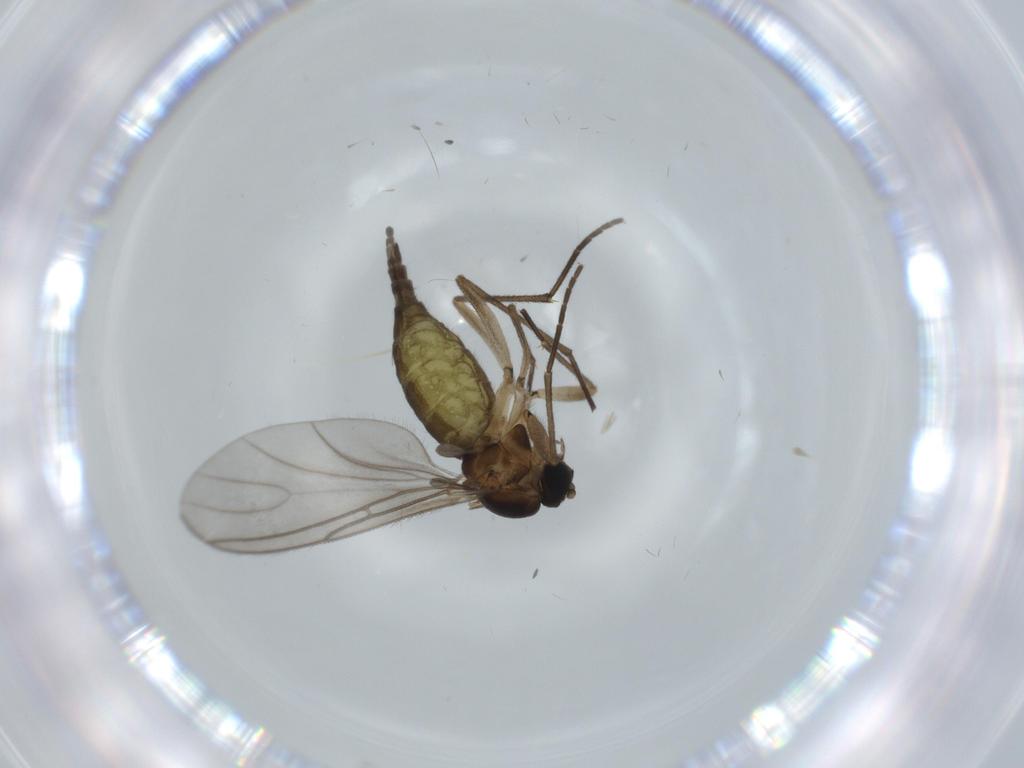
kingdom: Animalia
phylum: Arthropoda
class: Insecta
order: Diptera
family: Sciaridae
